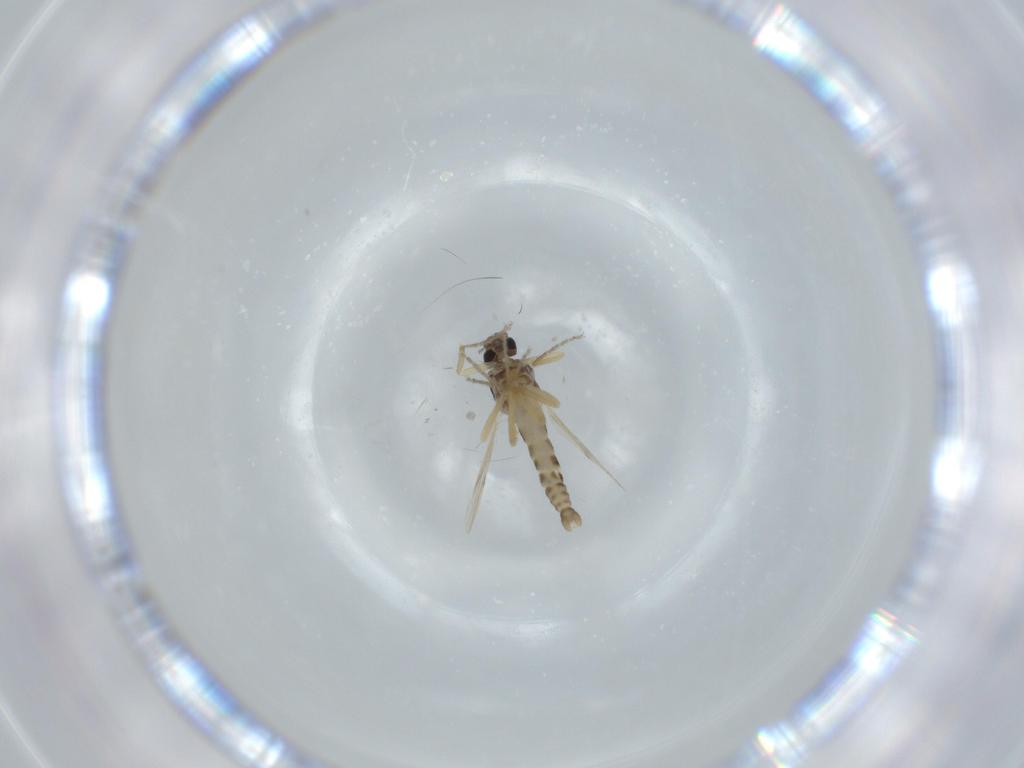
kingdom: Animalia
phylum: Arthropoda
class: Insecta
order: Diptera
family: Ceratopogonidae
